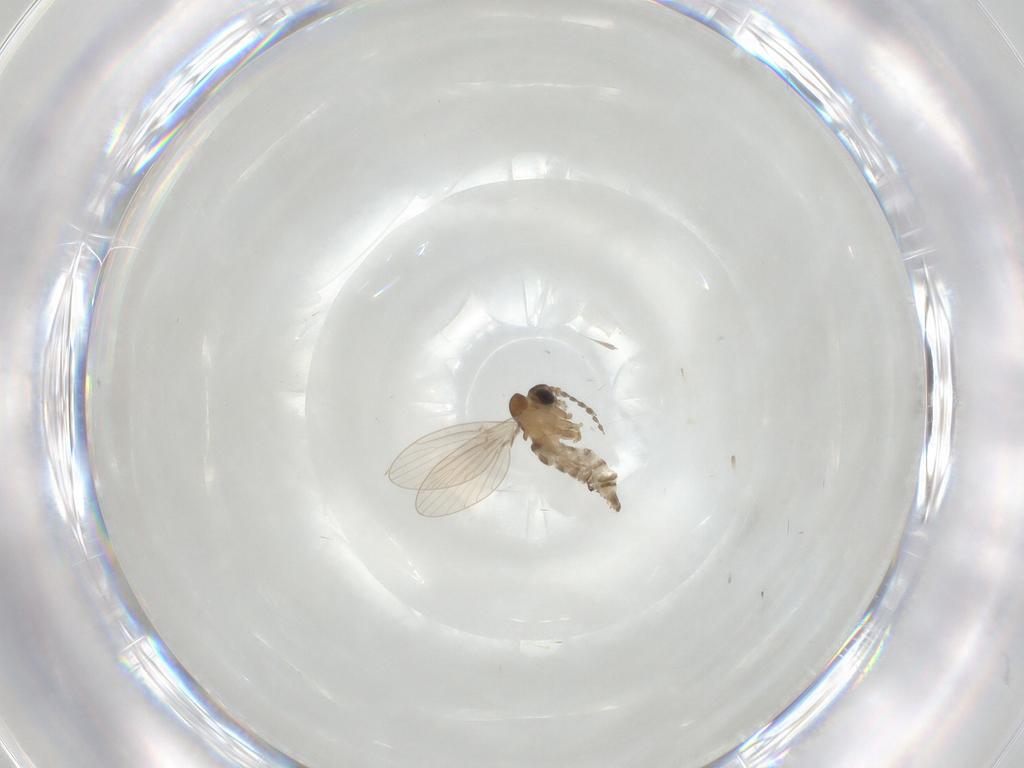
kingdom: Animalia
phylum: Arthropoda
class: Insecta
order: Diptera
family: Psychodidae
